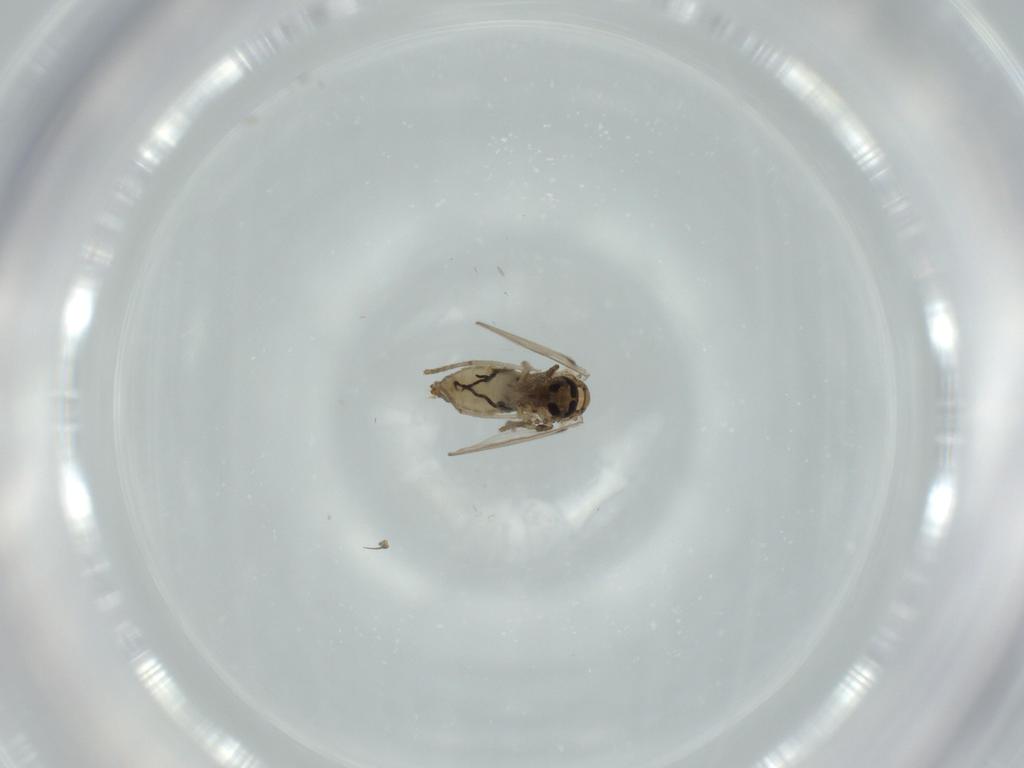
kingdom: Animalia
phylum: Arthropoda
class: Insecta
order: Diptera
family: Psychodidae
